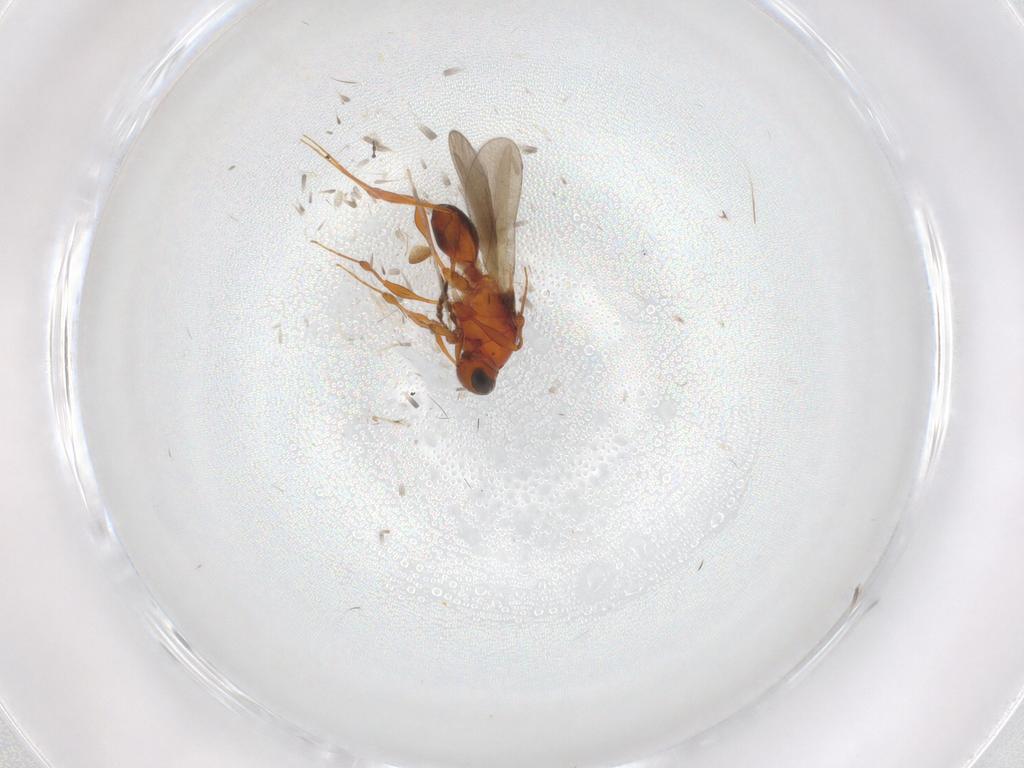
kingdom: Animalia
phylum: Arthropoda
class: Insecta
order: Hymenoptera
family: Platygastridae
